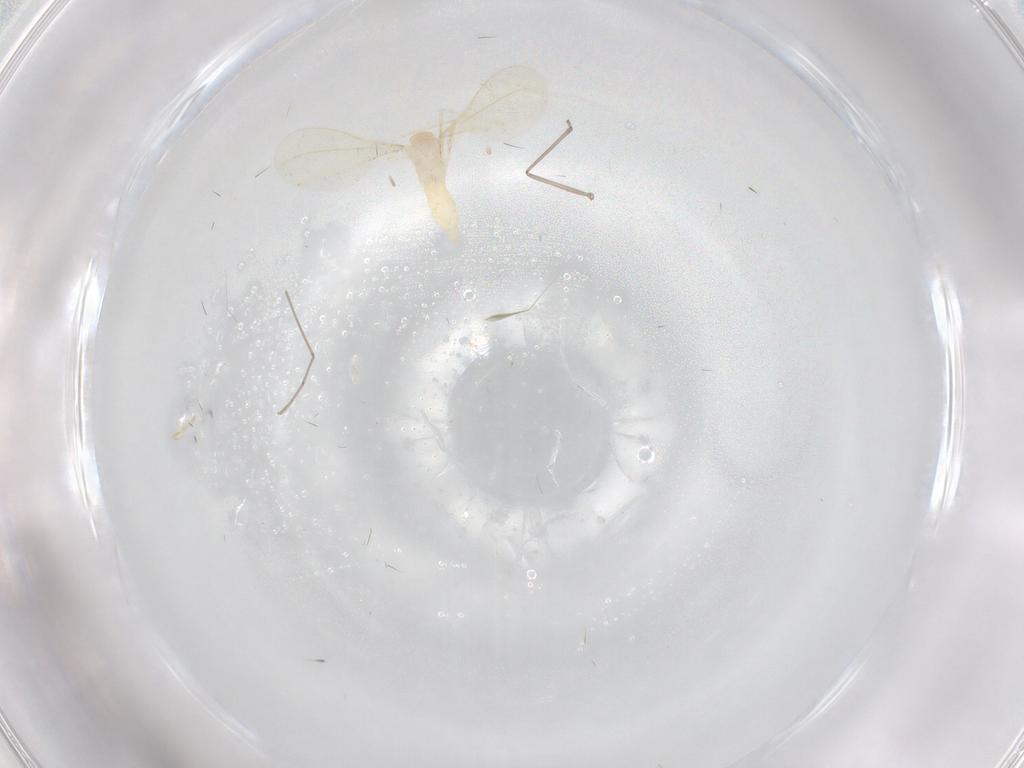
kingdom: Animalia
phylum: Arthropoda
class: Insecta
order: Diptera
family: Cecidomyiidae
